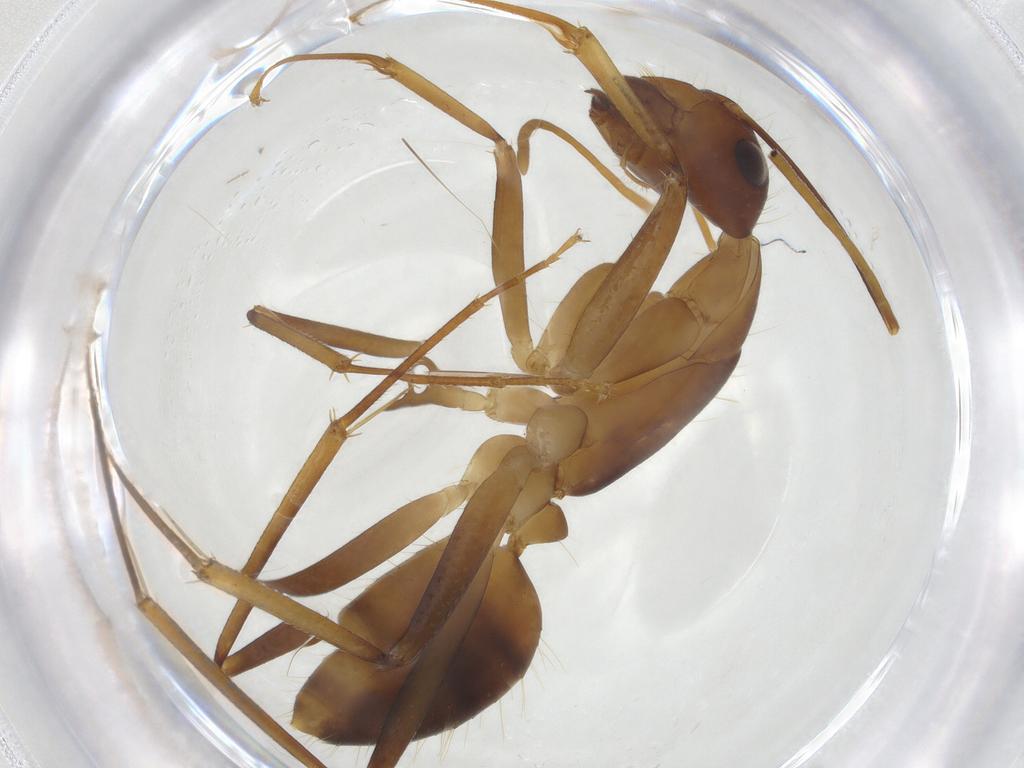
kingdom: Animalia
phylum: Arthropoda
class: Insecta
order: Hymenoptera
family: Formicidae
